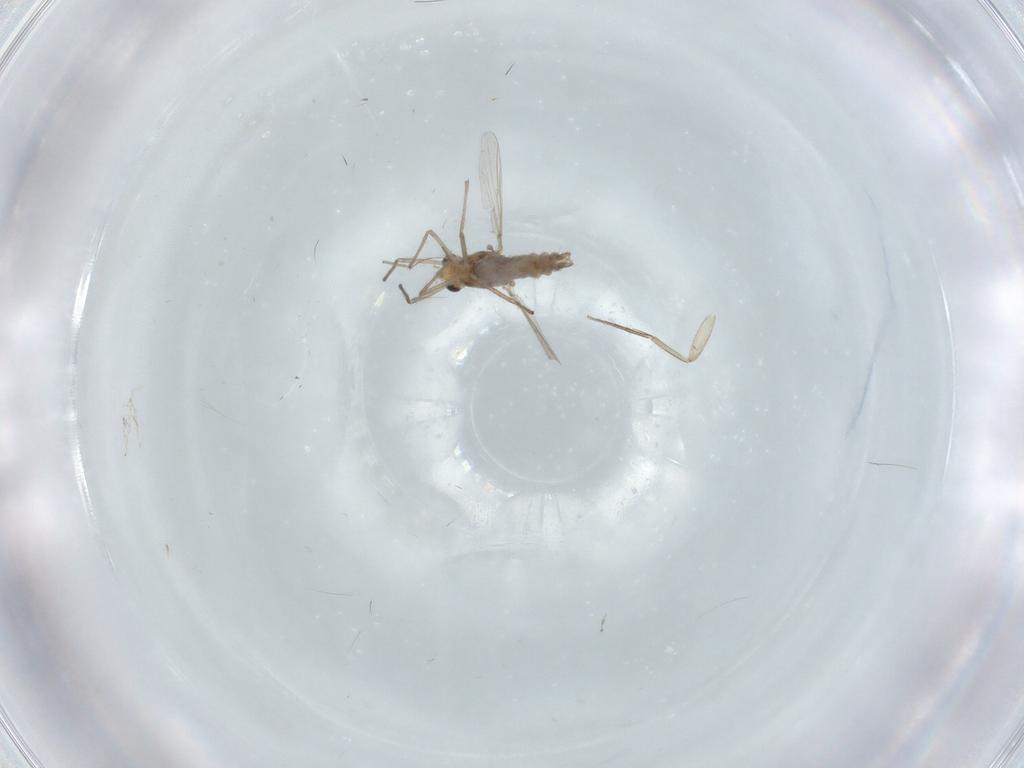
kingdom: Animalia
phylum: Arthropoda
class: Insecta
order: Diptera
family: Chironomidae
